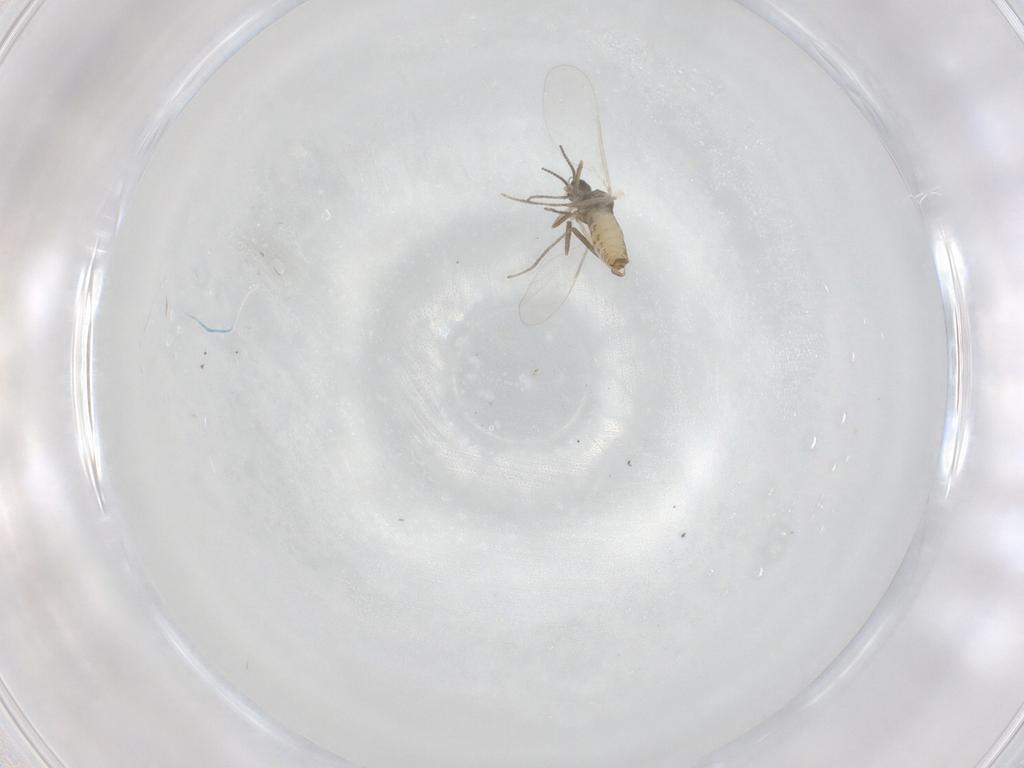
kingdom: Animalia
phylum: Arthropoda
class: Insecta
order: Diptera
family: Cecidomyiidae
